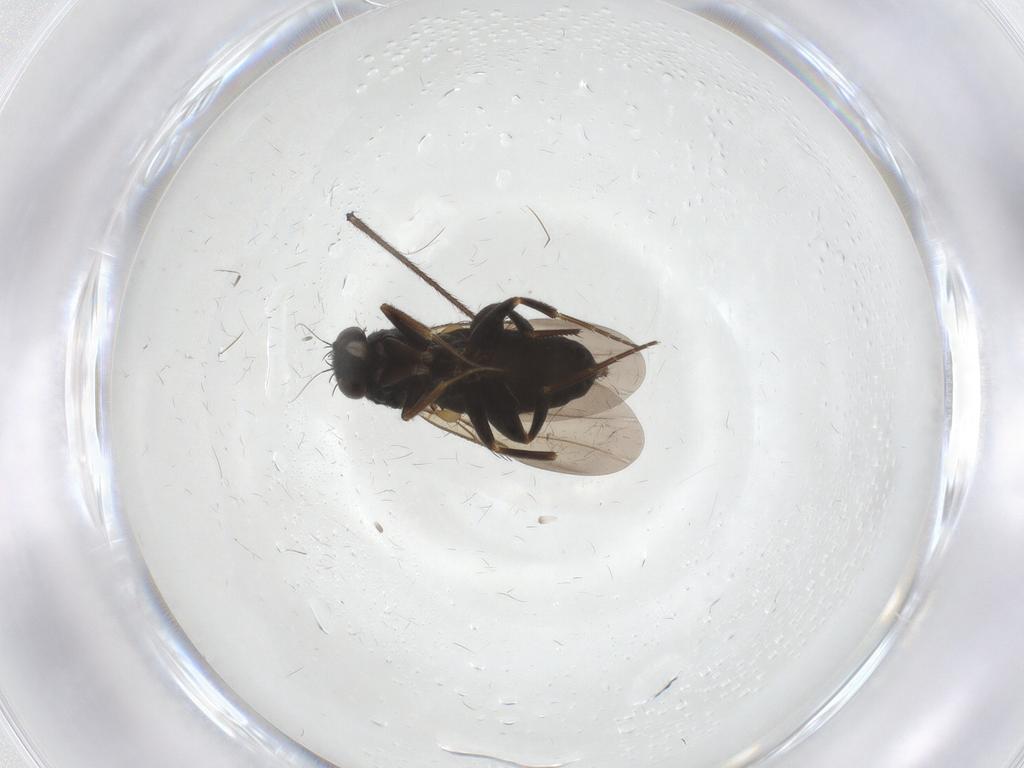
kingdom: Animalia
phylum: Arthropoda
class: Insecta
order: Diptera
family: Phoridae
